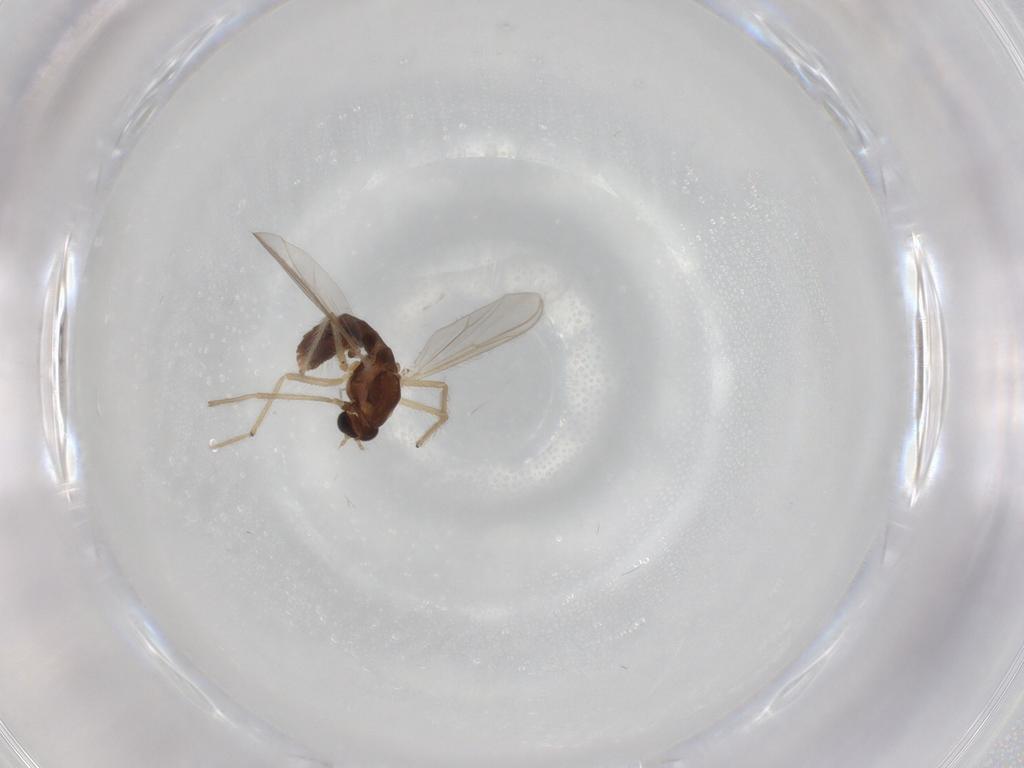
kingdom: Animalia
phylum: Arthropoda
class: Insecta
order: Diptera
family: Chironomidae
